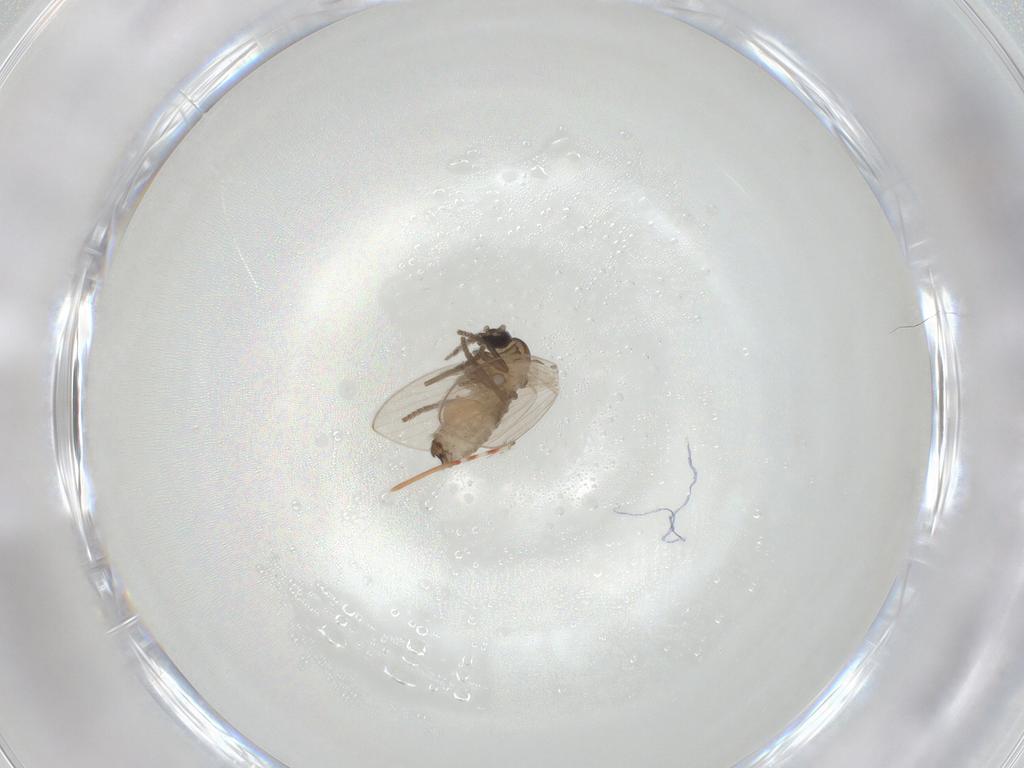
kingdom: Animalia
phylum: Arthropoda
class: Insecta
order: Diptera
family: Psychodidae
